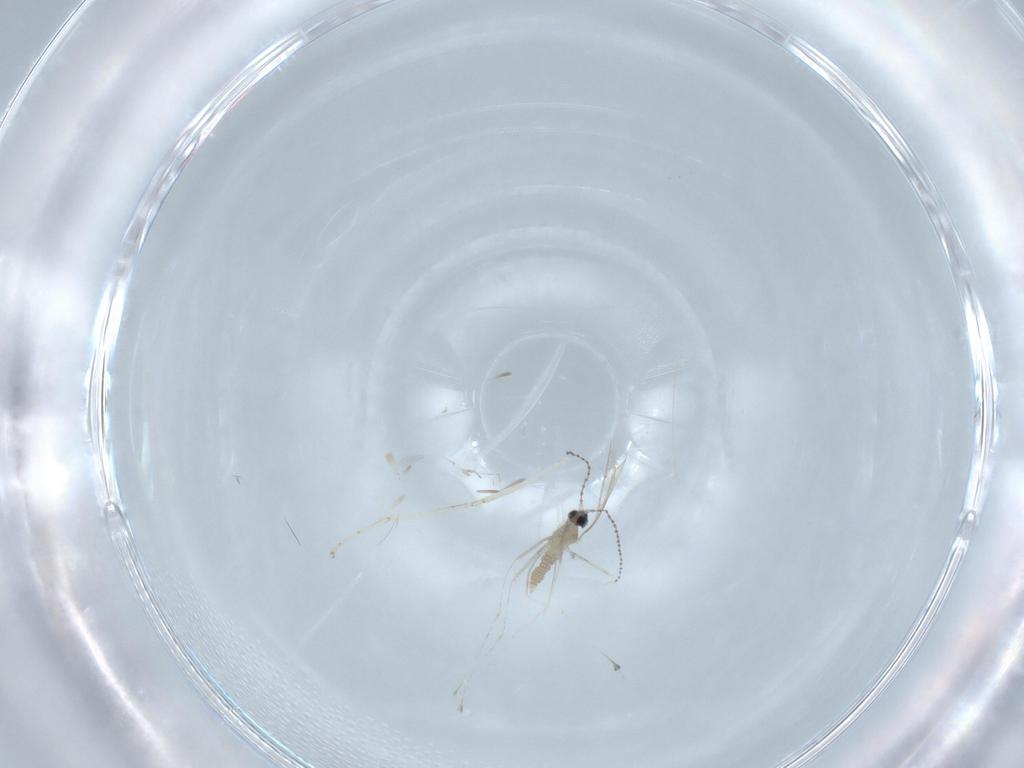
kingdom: Animalia
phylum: Arthropoda
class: Insecta
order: Diptera
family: Cecidomyiidae
